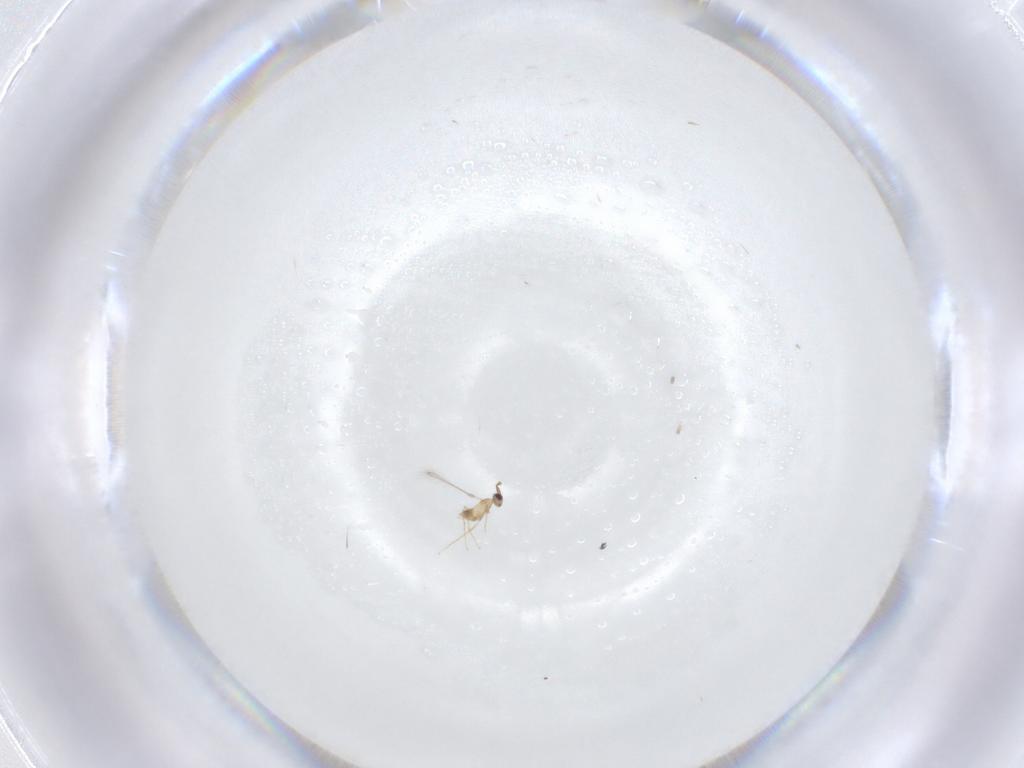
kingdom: Animalia
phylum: Arthropoda
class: Insecta
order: Hymenoptera
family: Mymaridae
